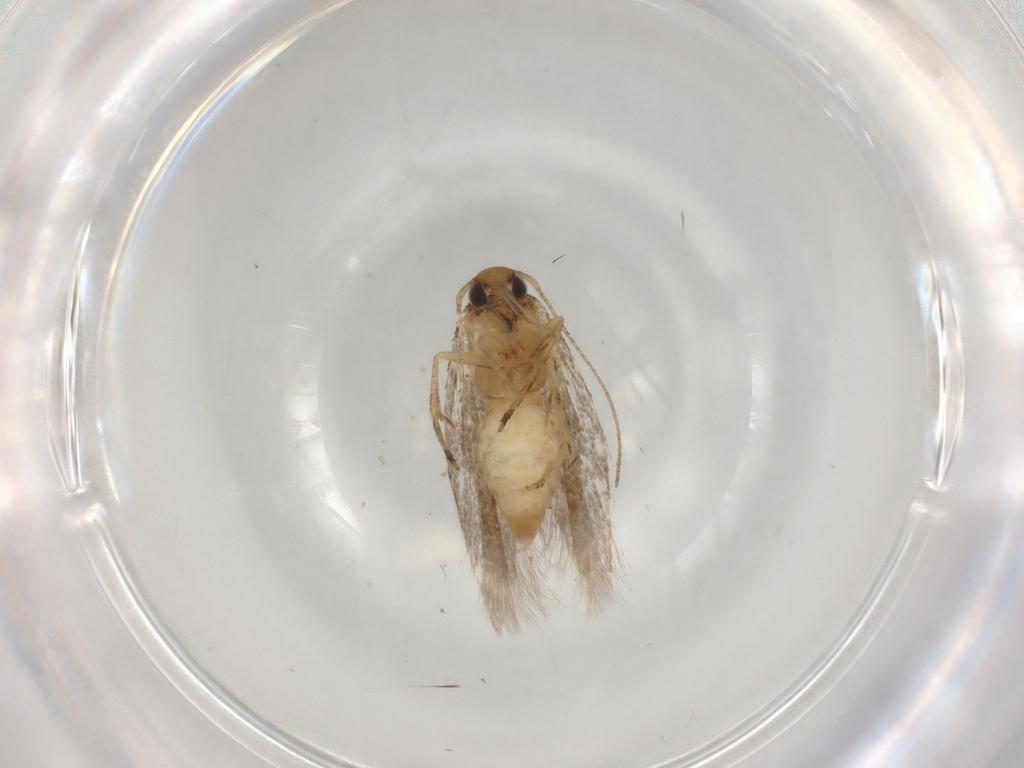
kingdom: Animalia
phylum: Arthropoda
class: Insecta
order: Lepidoptera
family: Gelechiidae
